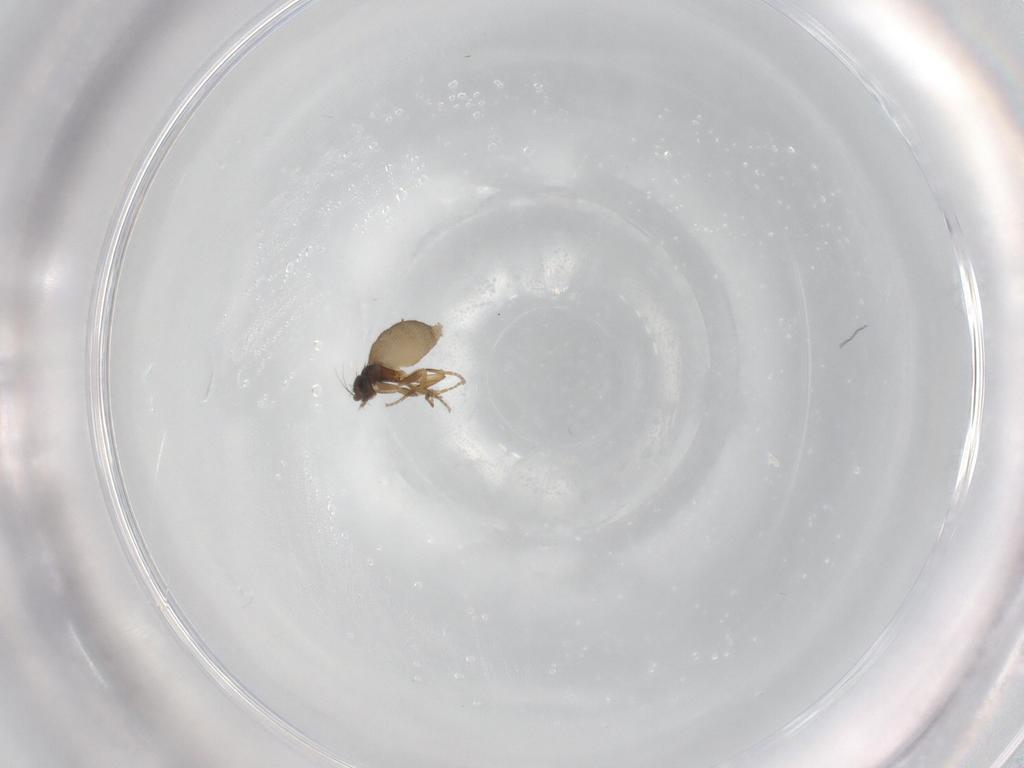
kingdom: Animalia
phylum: Arthropoda
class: Insecta
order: Diptera
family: Phoridae
